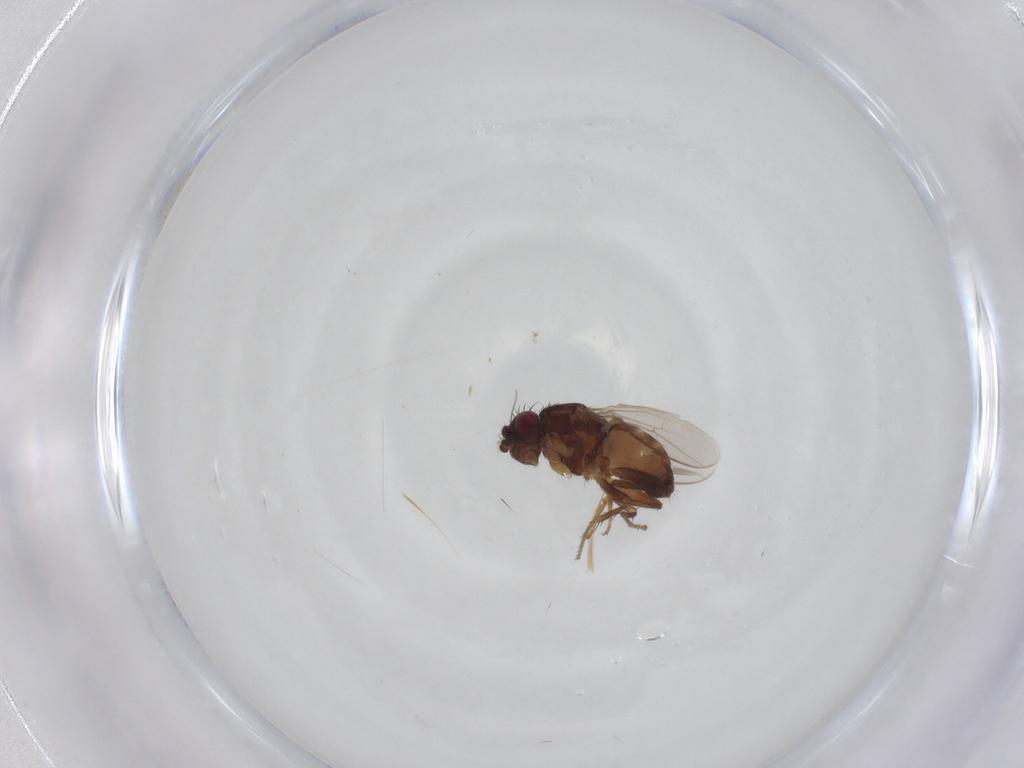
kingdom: Animalia
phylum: Arthropoda
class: Insecta
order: Diptera
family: Sphaeroceridae
